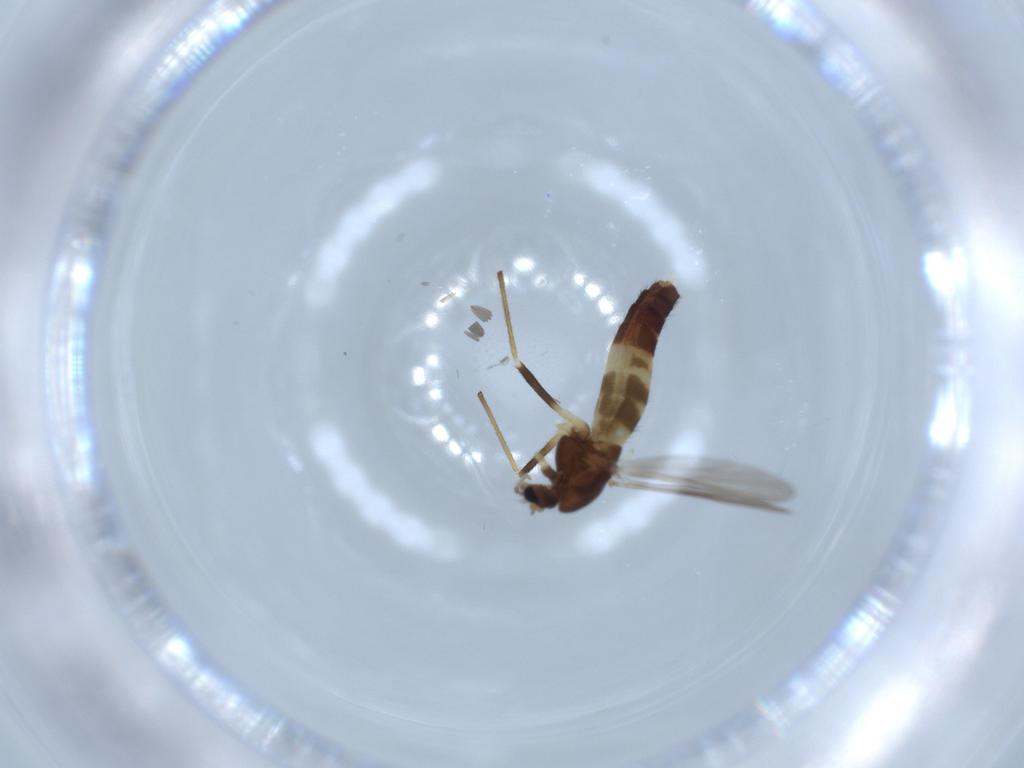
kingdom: Animalia
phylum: Arthropoda
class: Insecta
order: Diptera
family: Chironomidae
